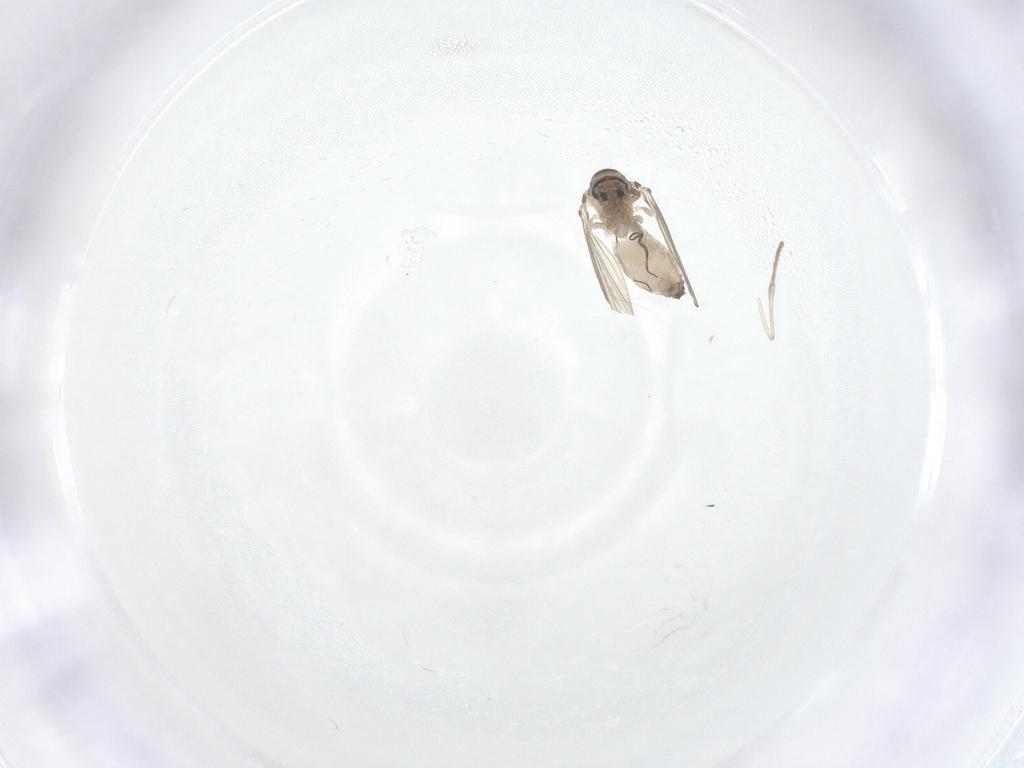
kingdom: Animalia
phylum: Arthropoda
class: Insecta
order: Diptera
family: Psychodidae
